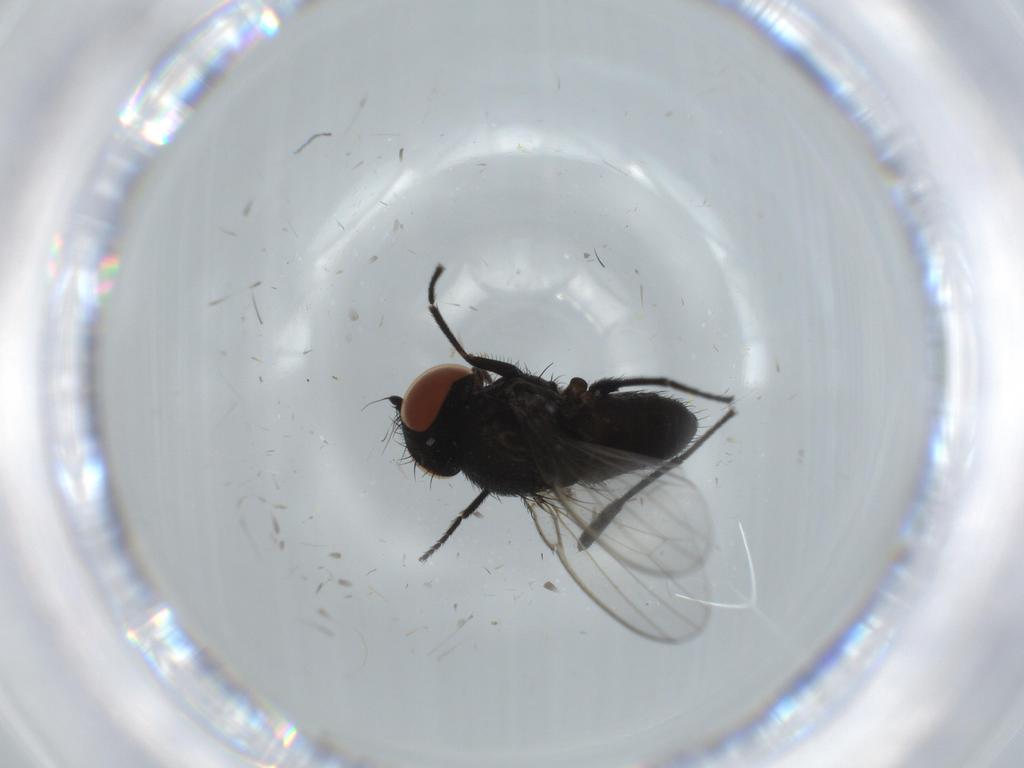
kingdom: Animalia
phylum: Arthropoda
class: Insecta
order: Diptera
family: Milichiidae
